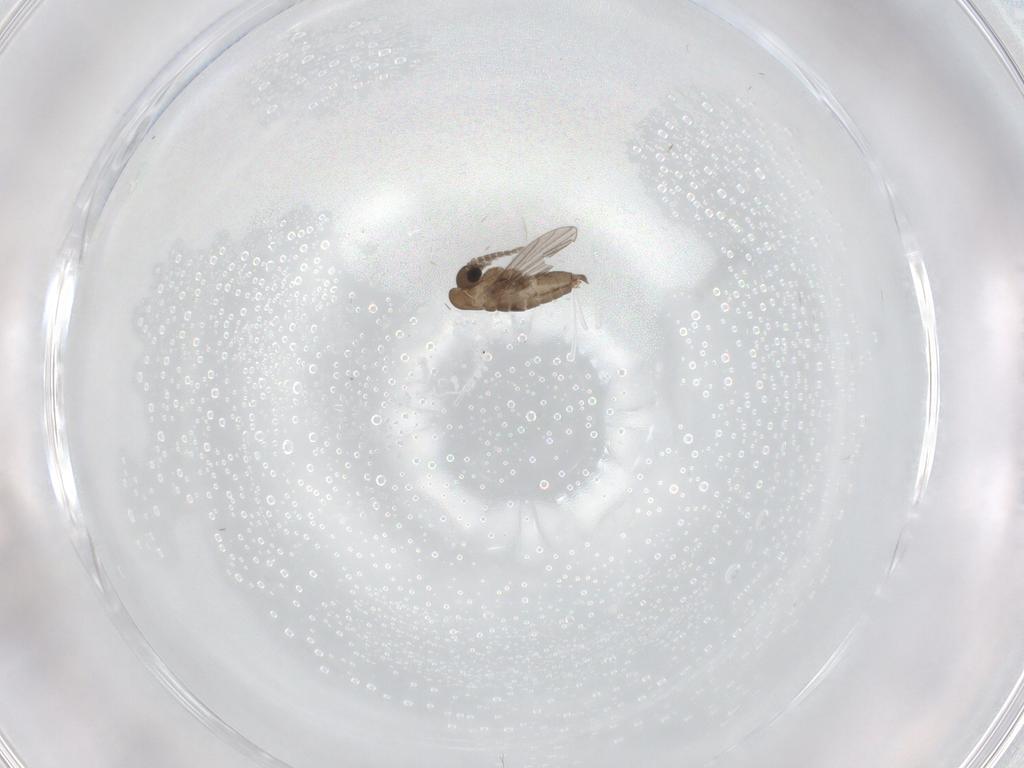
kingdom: Animalia
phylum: Arthropoda
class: Insecta
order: Diptera
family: Psychodidae
